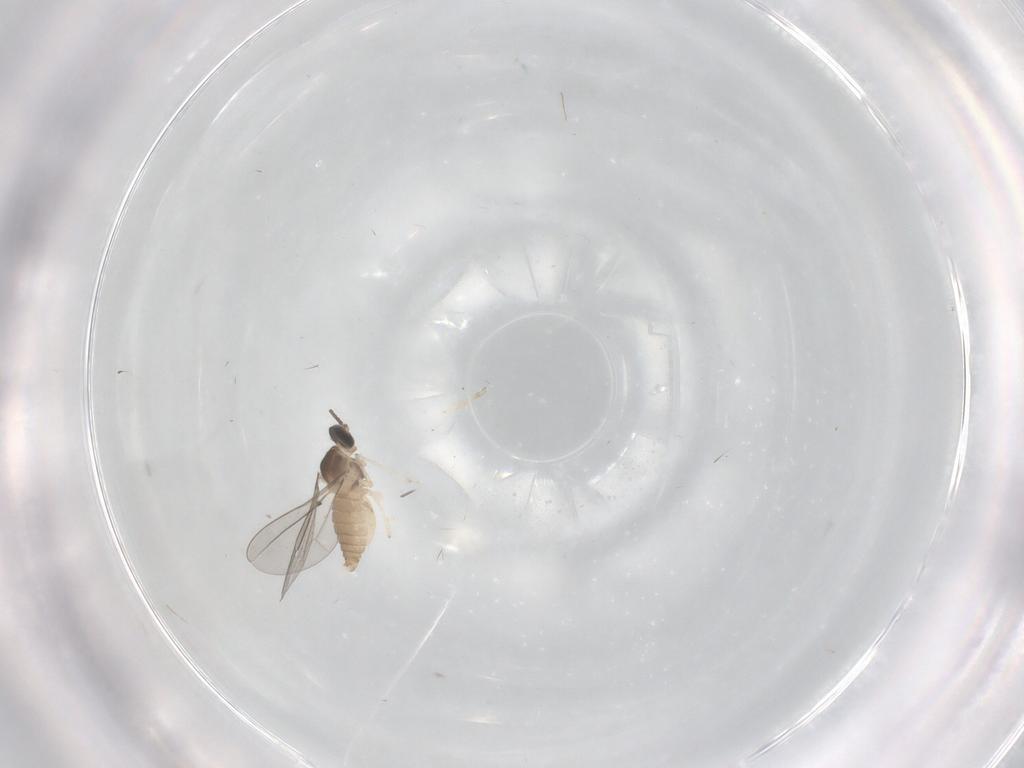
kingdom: Animalia
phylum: Arthropoda
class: Insecta
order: Diptera
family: Cecidomyiidae
